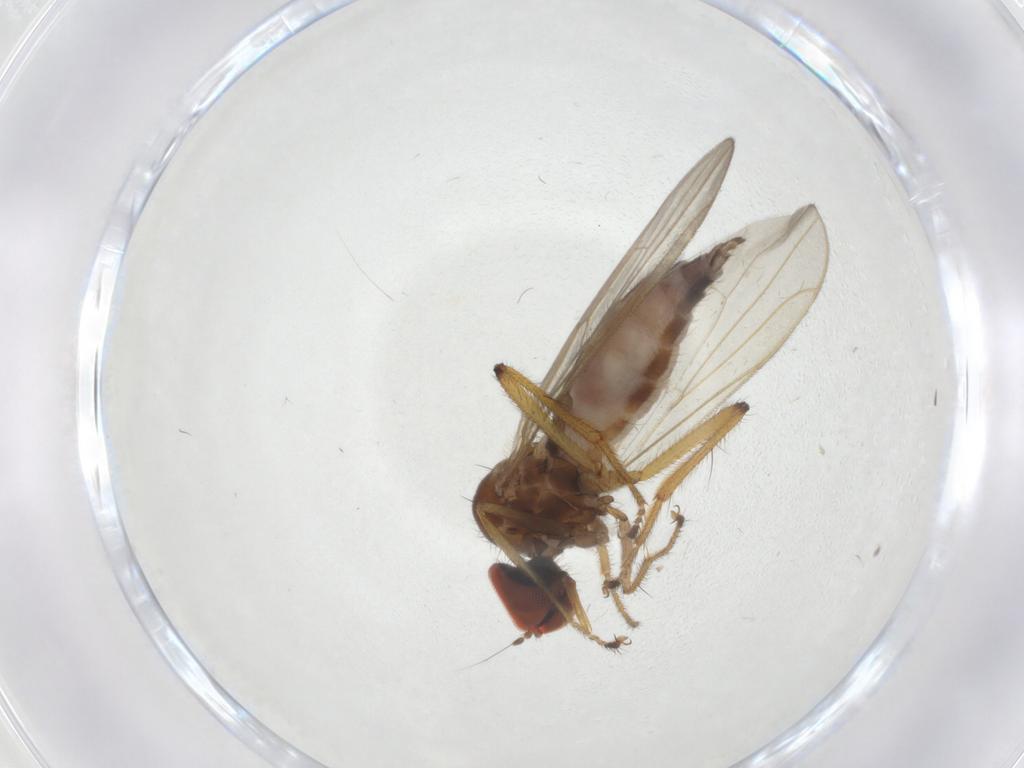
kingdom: Animalia
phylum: Arthropoda
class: Insecta
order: Diptera
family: Hybotidae
